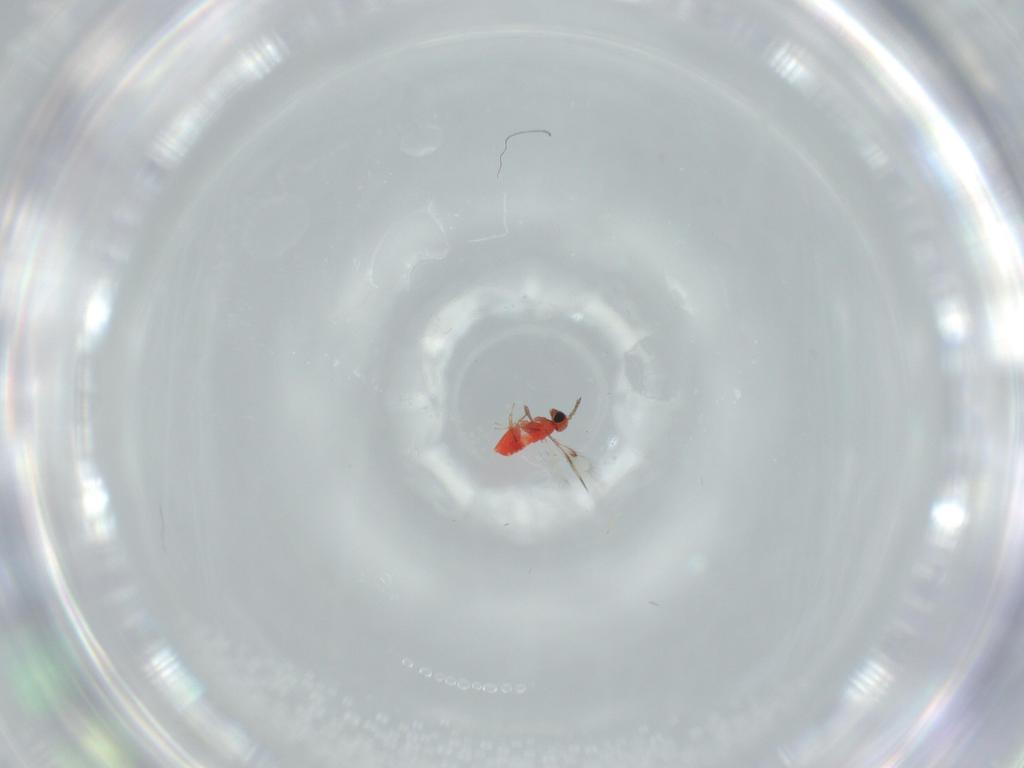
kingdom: Animalia
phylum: Arthropoda
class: Insecta
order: Hymenoptera
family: Trichogrammatidae
